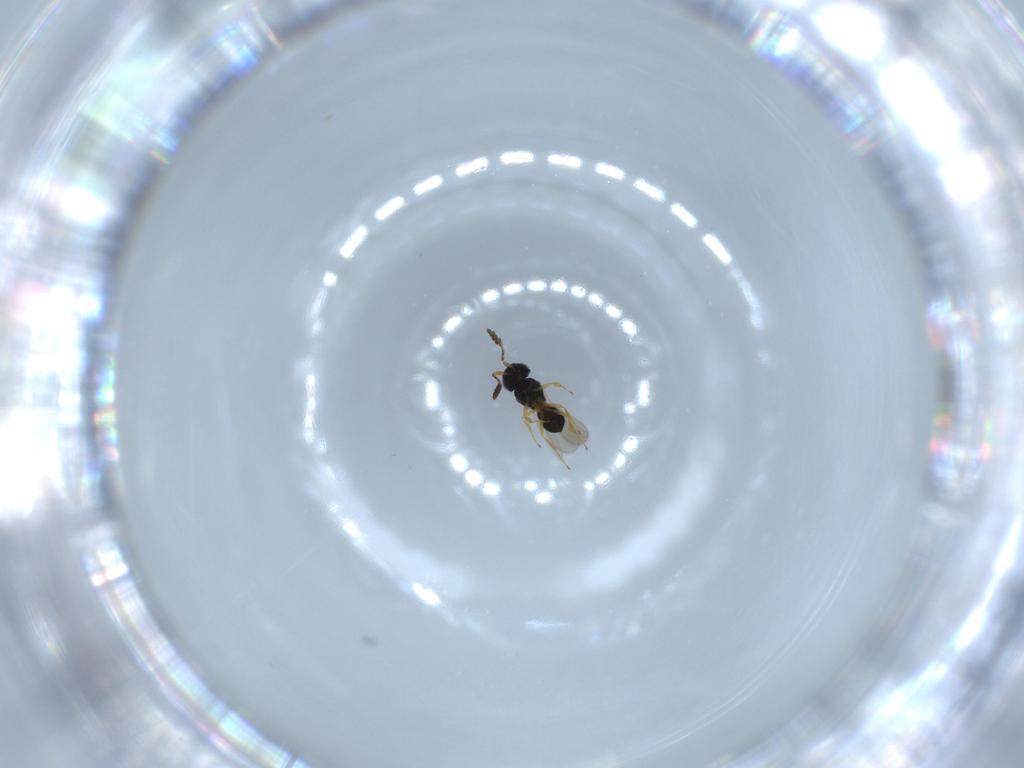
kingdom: Animalia
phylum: Arthropoda
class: Insecta
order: Hymenoptera
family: Scelionidae
